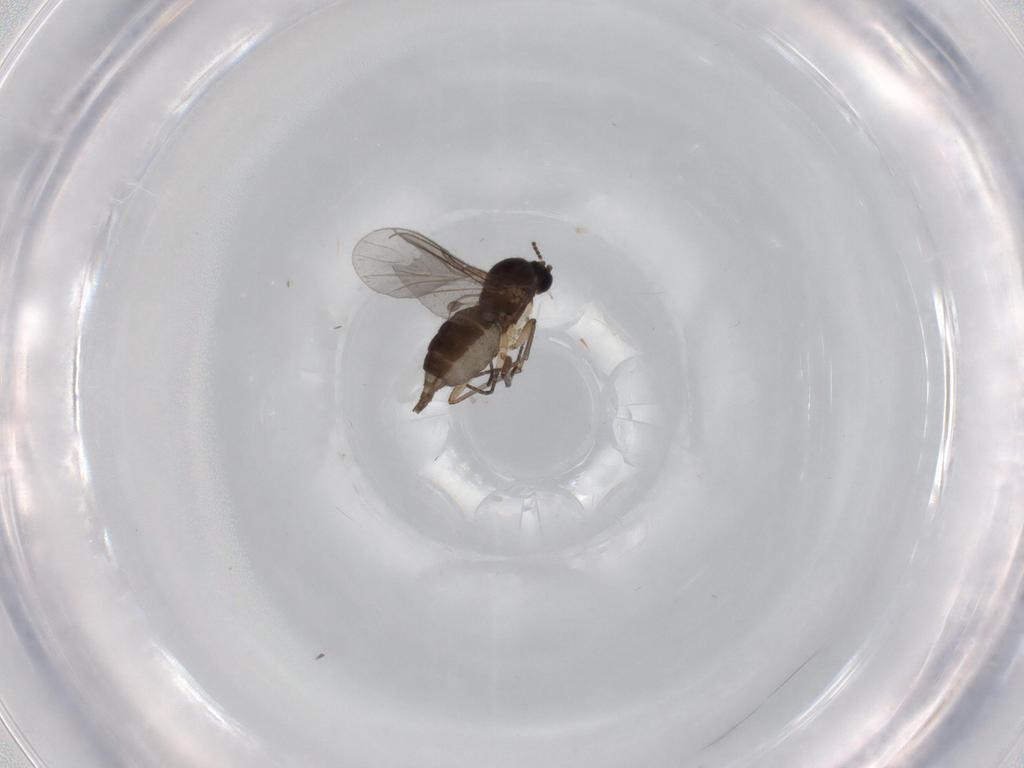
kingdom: Animalia
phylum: Arthropoda
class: Insecta
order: Diptera
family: Sciaridae
